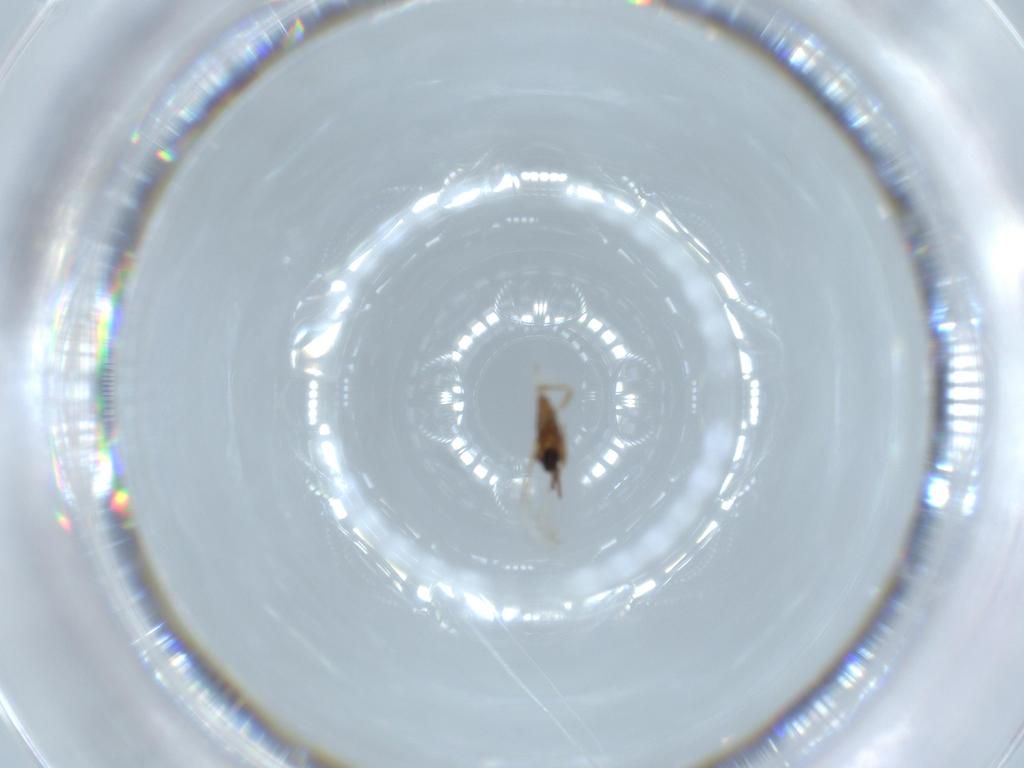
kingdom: Animalia
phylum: Arthropoda
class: Insecta
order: Diptera
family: Cecidomyiidae
